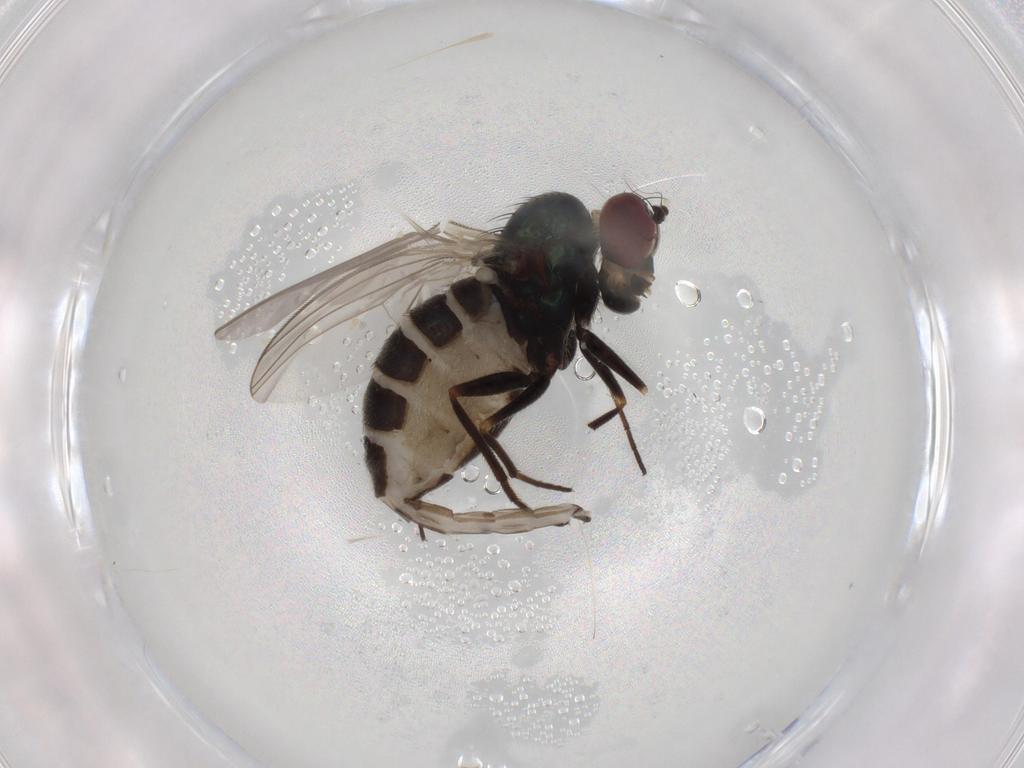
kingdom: Animalia
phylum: Arthropoda
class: Insecta
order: Diptera
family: Dolichopodidae
